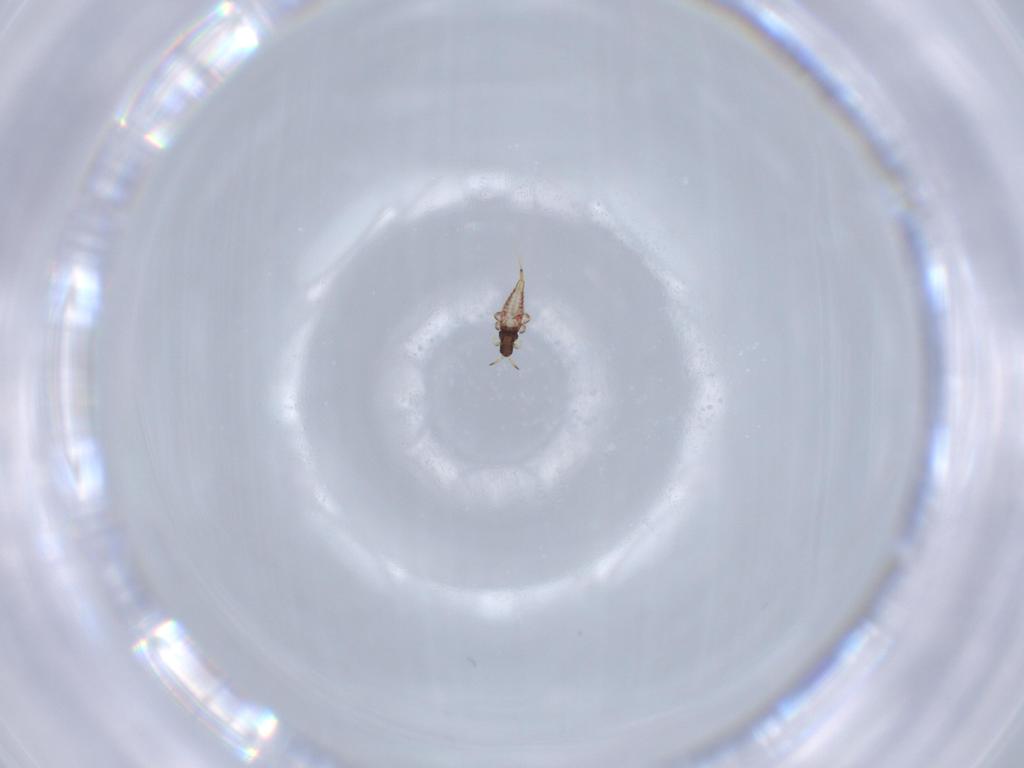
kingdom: Animalia
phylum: Arthropoda
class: Insecta
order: Thysanoptera
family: Phlaeothripidae
